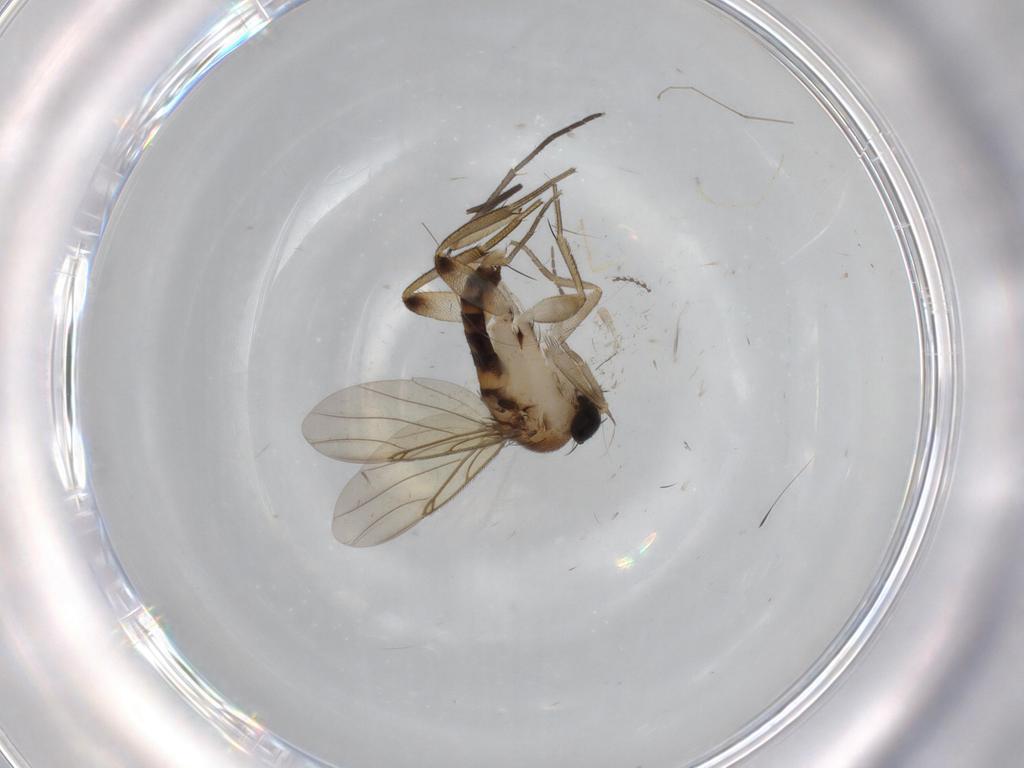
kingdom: Animalia
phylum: Arthropoda
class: Insecta
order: Diptera
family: Phoridae
